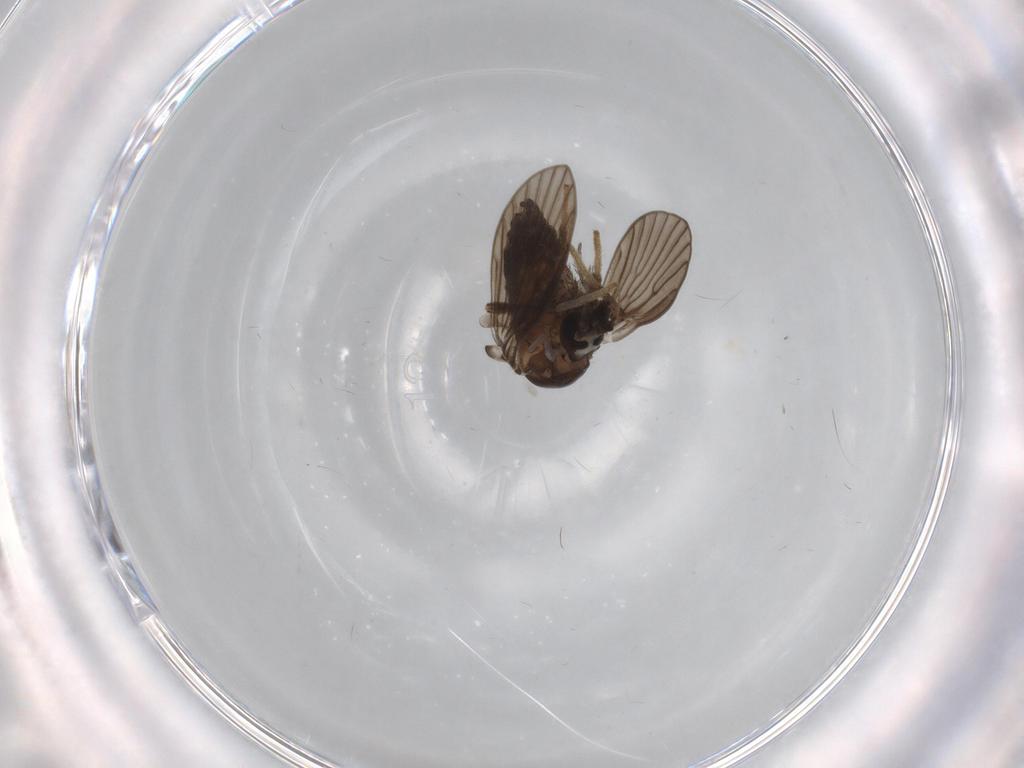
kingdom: Animalia
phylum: Arthropoda
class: Insecta
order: Diptera
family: Psychodidae
